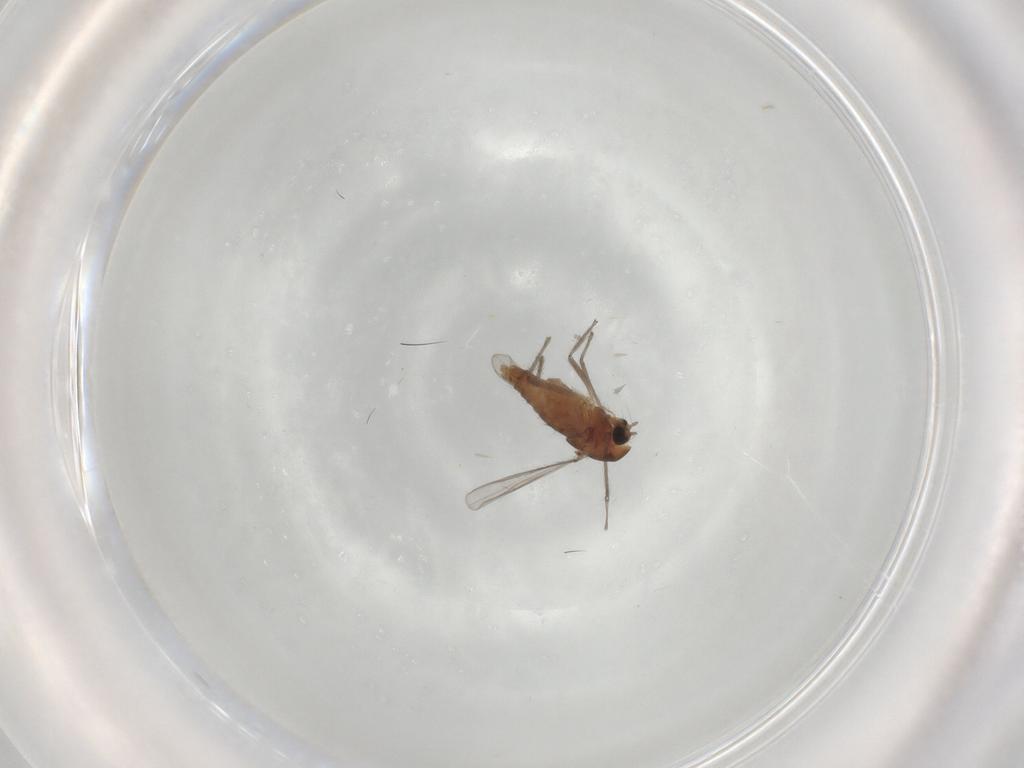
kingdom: Animalia
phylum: Arthropoda
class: Insecta
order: Diptera
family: Chironomidae
